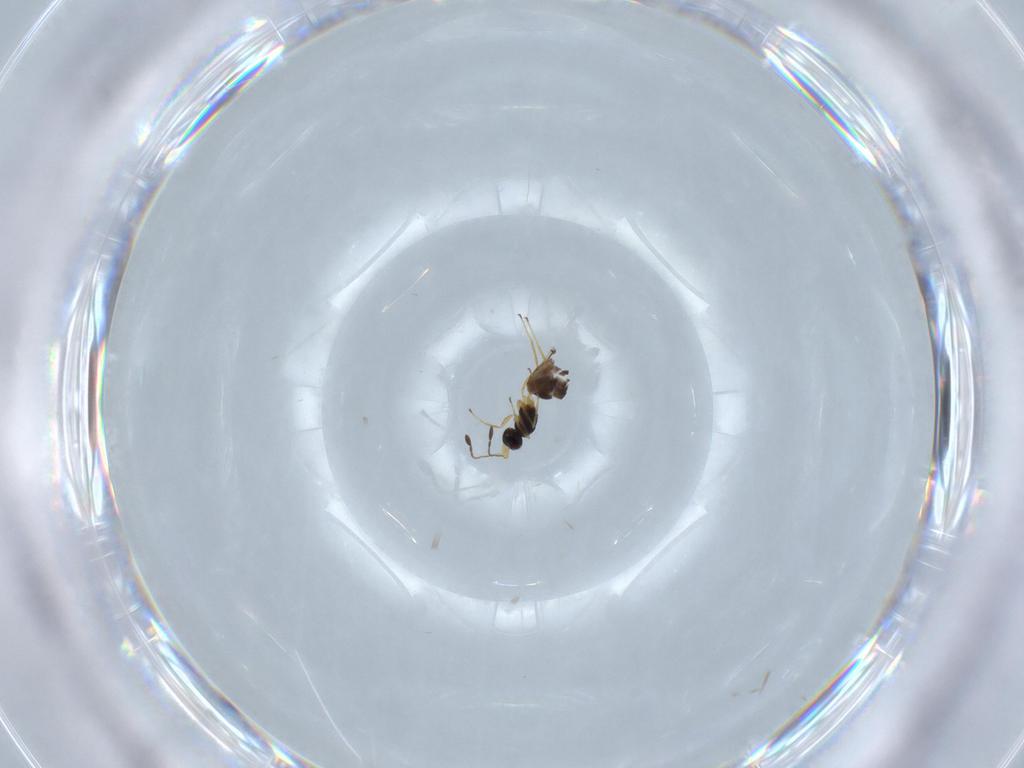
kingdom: Animalia
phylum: Arthropoda
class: Insecta
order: Hymenoptera
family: Mymaridae
